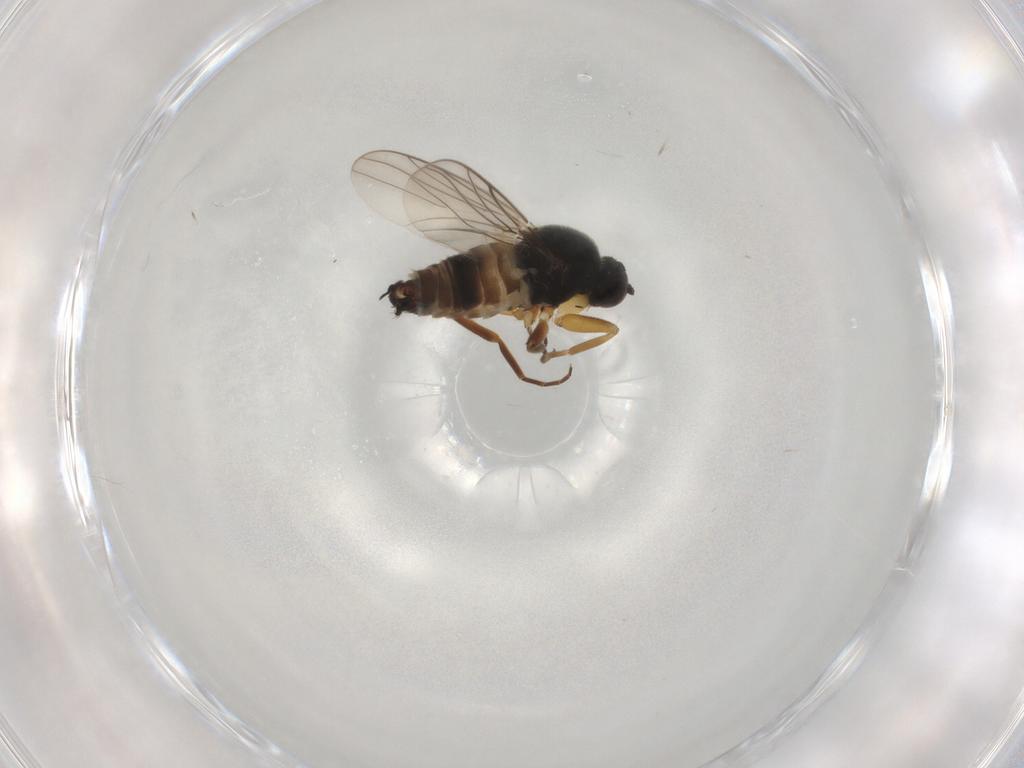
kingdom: Animalia
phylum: Arthropoda
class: Insecta
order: Diptera
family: Hybotidae
